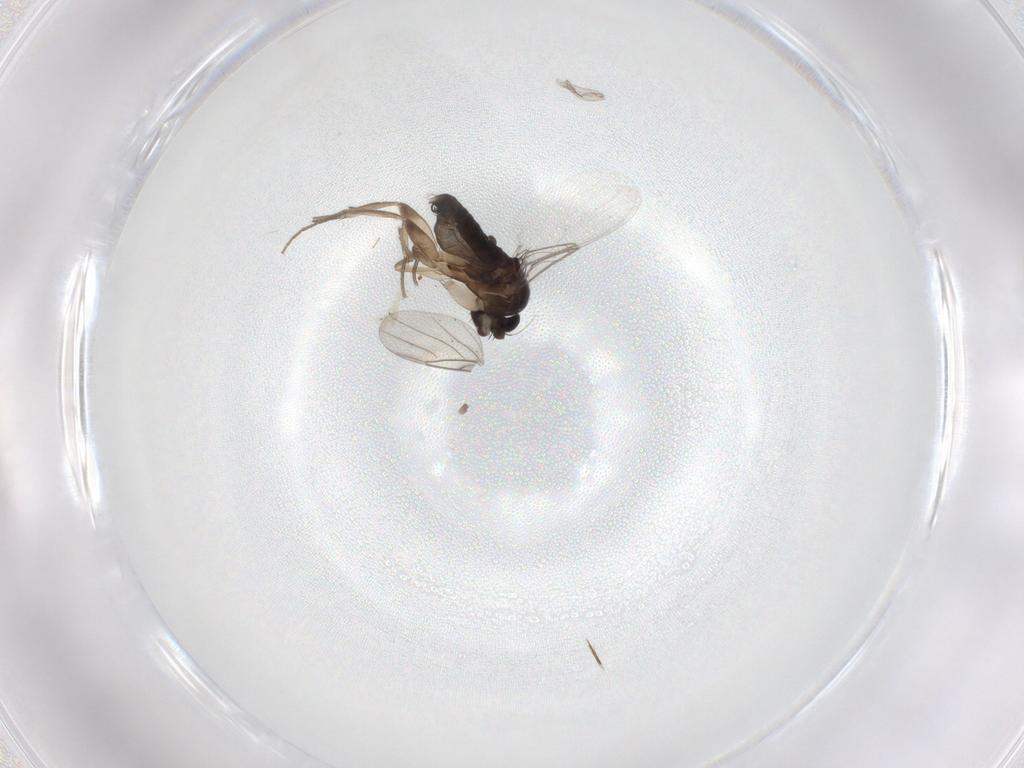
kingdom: Animalia
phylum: Arthropoda
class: Insecta
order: Diptera
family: Phoridae
